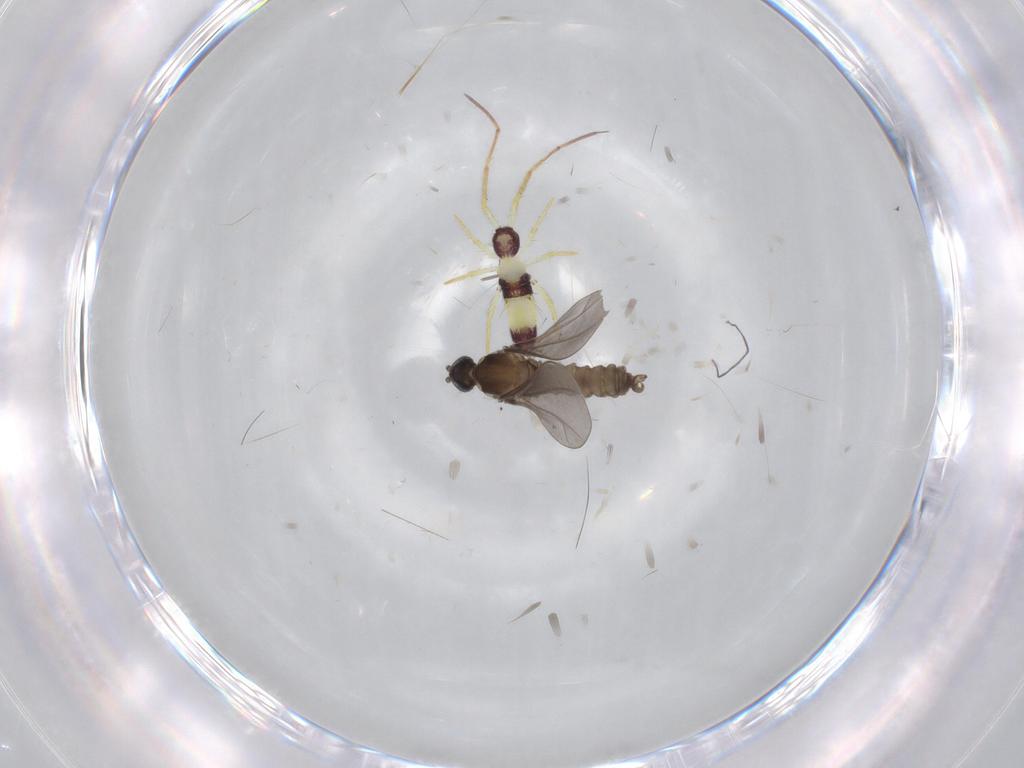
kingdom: Animalia
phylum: Arthropoda
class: Insecta
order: Diptera
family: Cecidomyiidae
